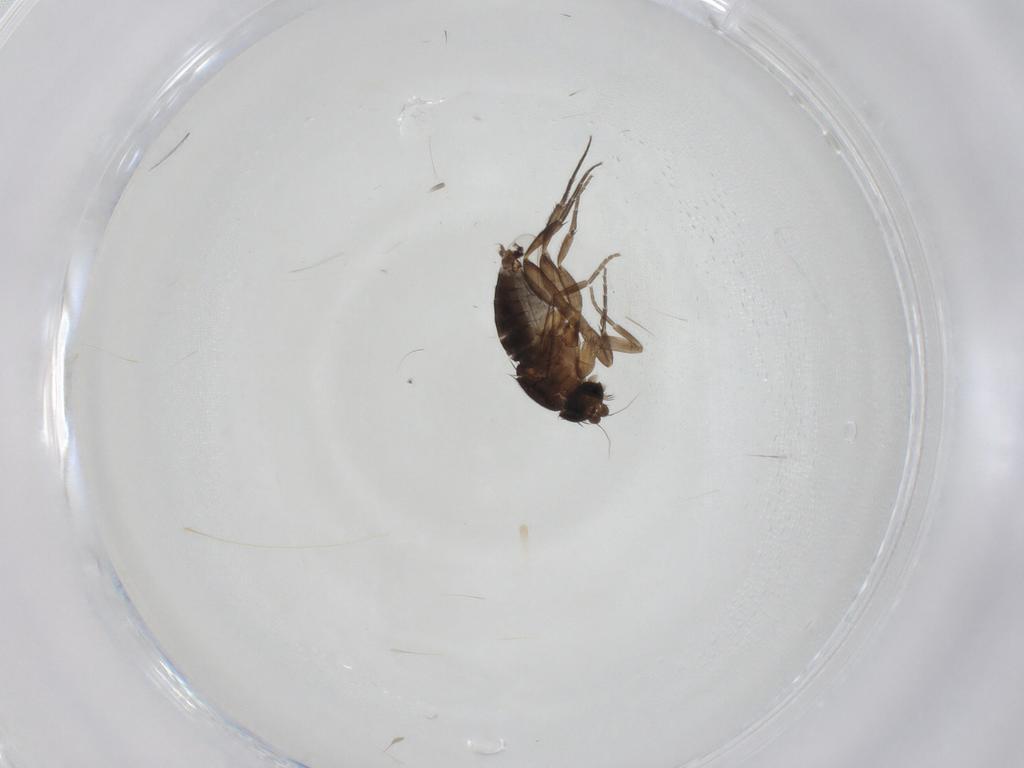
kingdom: Animalia
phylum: Arthropoda
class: Insecta
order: Diptera
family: Phoridae
